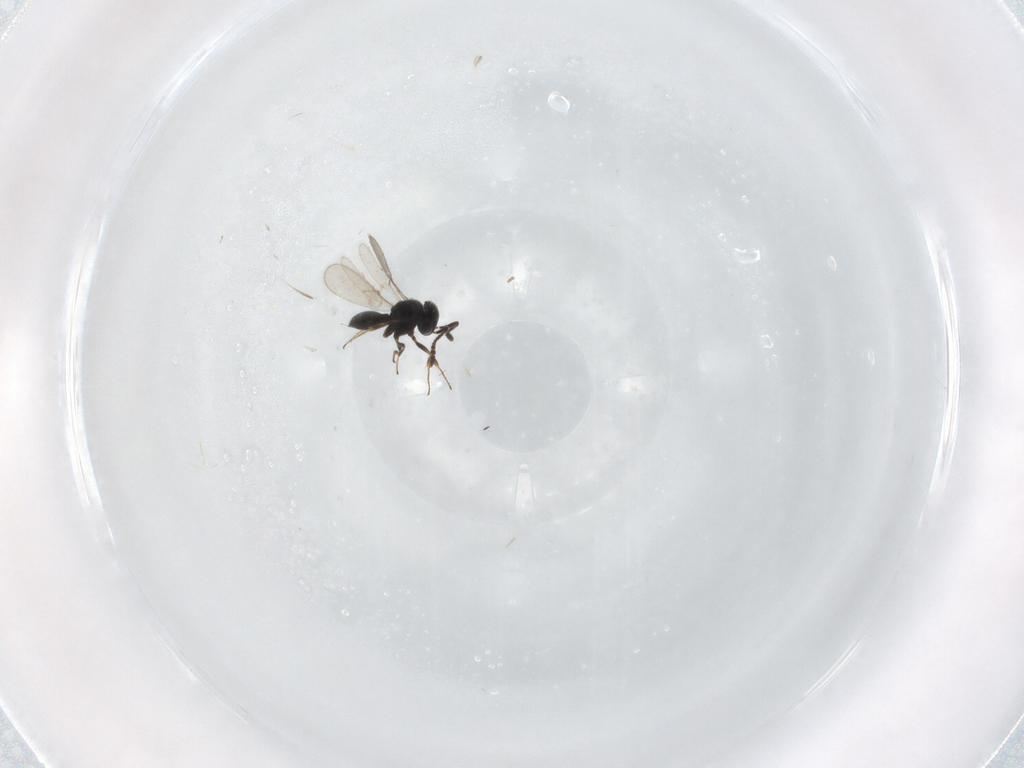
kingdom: Animalia
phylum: Arthropoda
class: Insecta
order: Hymenoptera
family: Scelionidae
